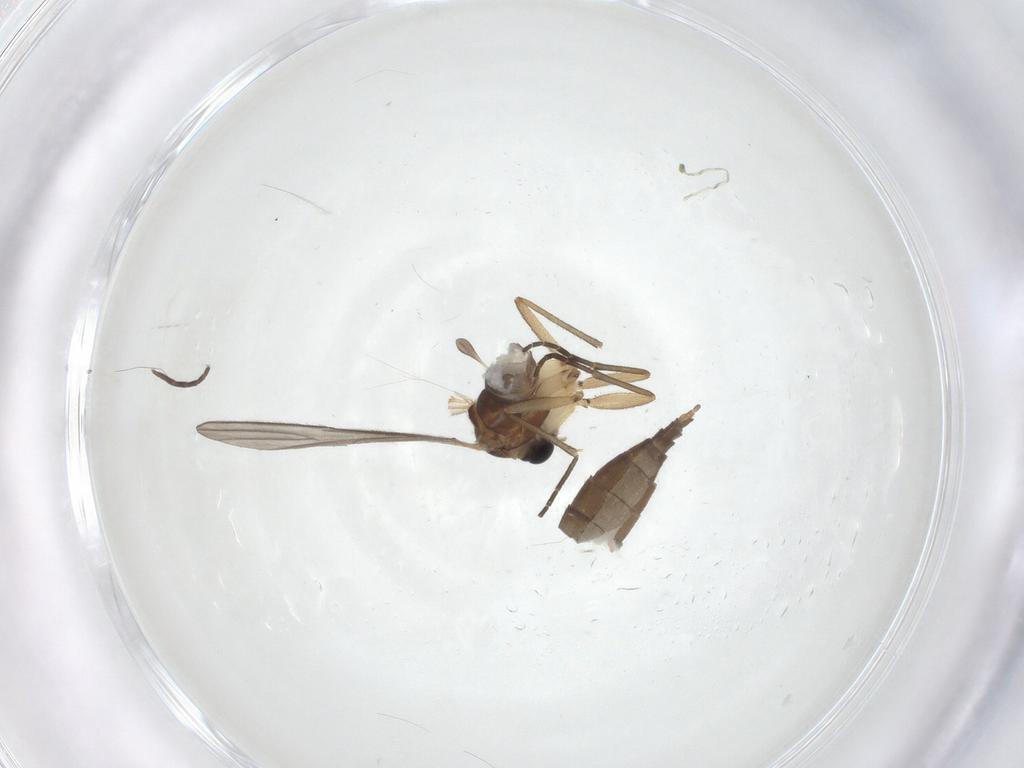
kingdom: Animalia
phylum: Arthropoda
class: Insecta
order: Diptera
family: Sciaridae
